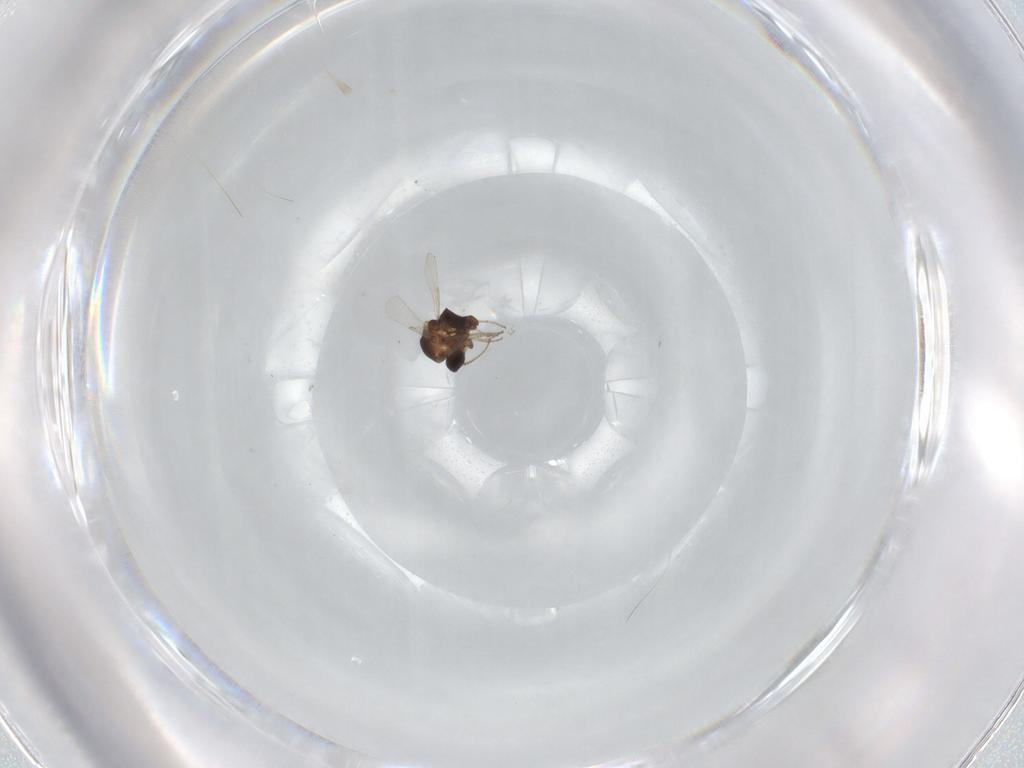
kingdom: Animalia
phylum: Arthropoda
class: Insecta
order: Diptera
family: Ceratopogonidae
